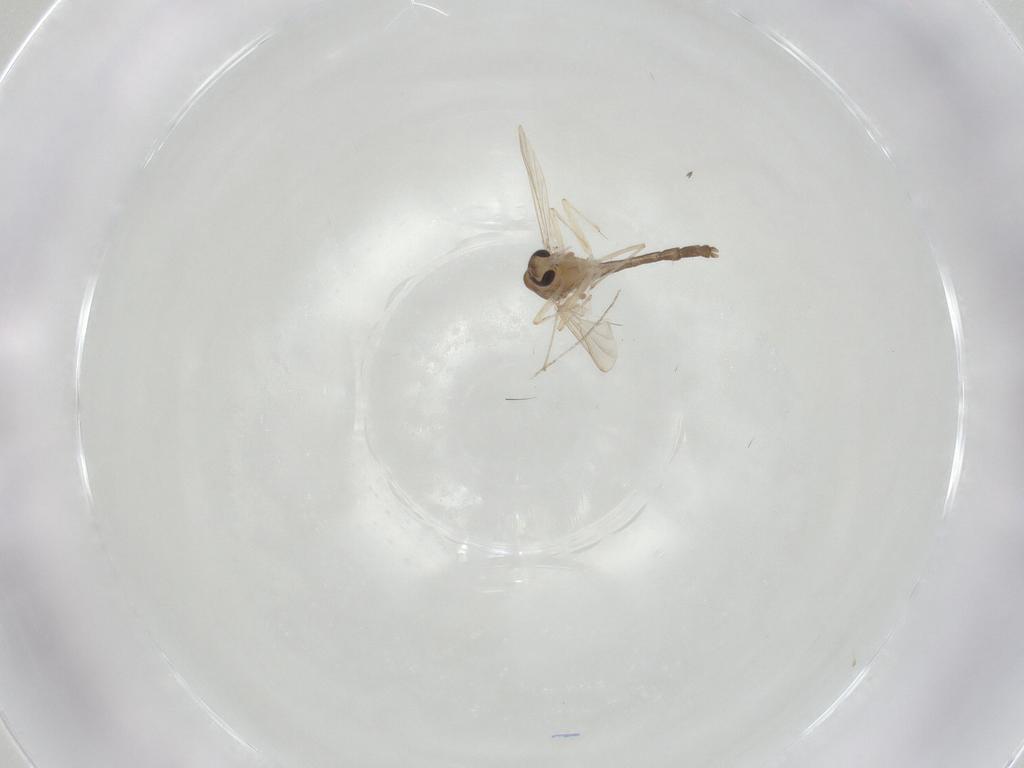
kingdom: Animalia
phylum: Arthropoda
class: Insecta
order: Diptera
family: Chironomidae
